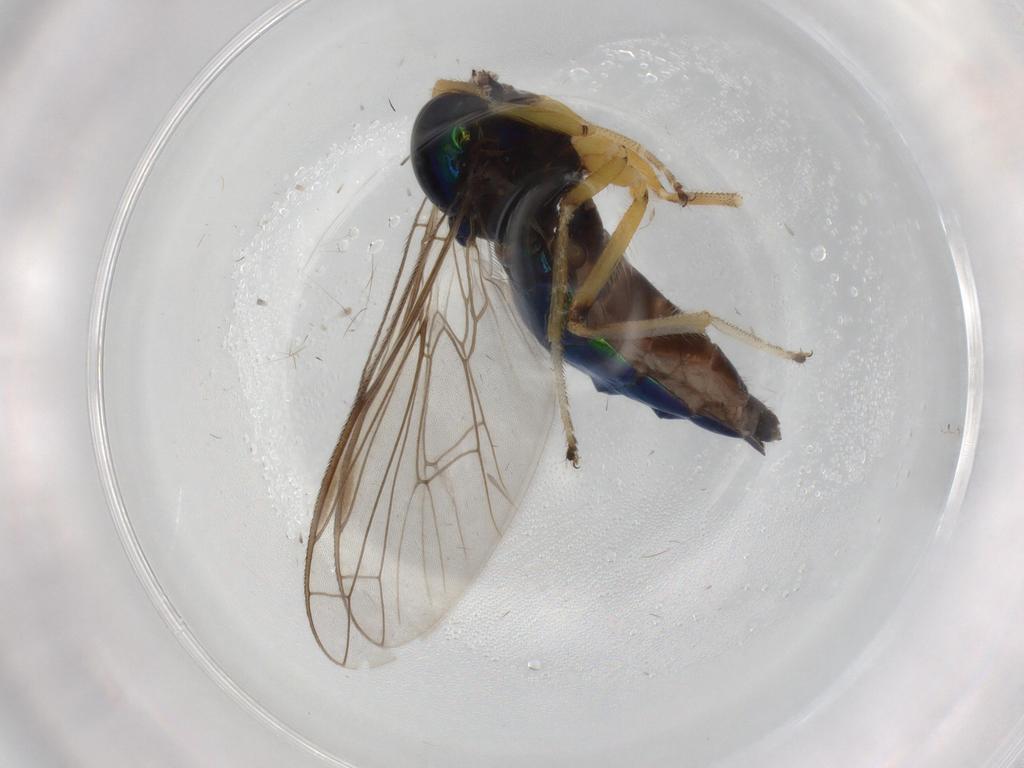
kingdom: Animalia
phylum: Arthropoda
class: Insecta
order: Diptera
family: Empididae
